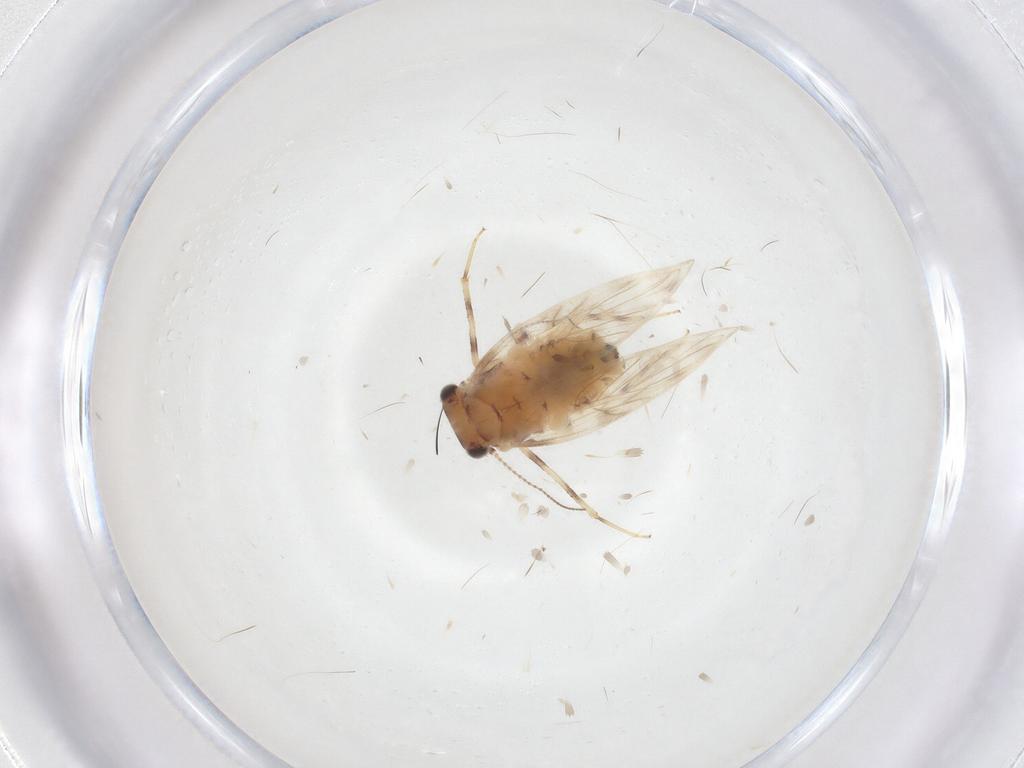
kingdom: Animalia
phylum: Arthropoda
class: Insecta
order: Psocodea
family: Lepidopsocidae
